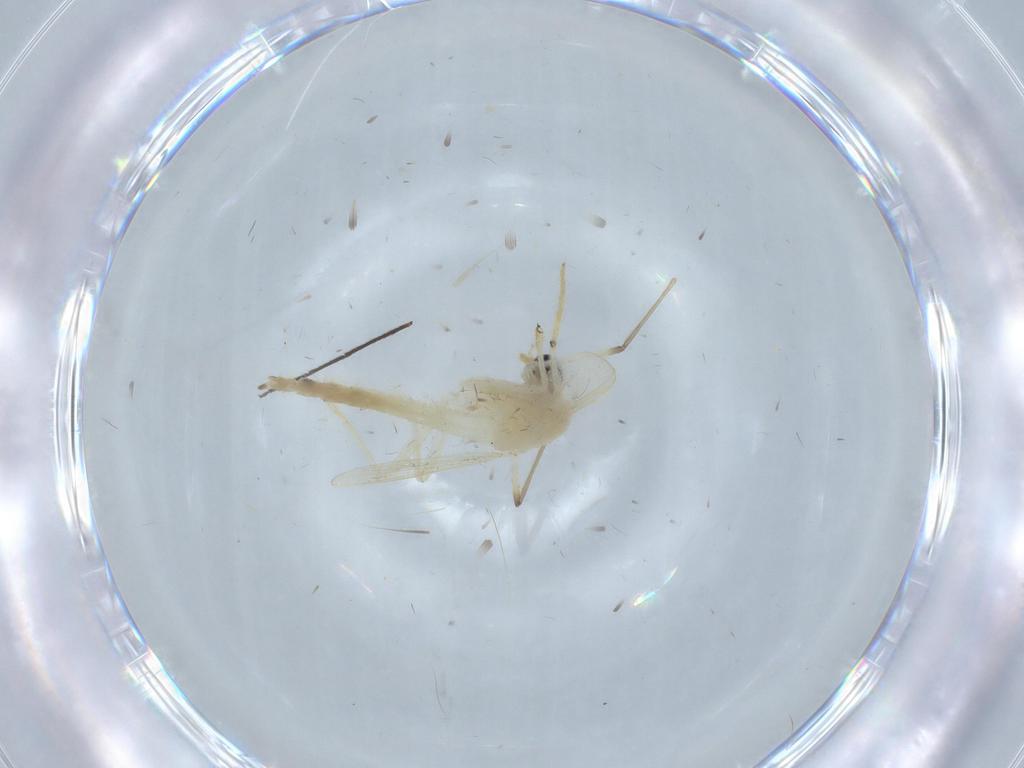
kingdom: Animalia
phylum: Arthropoda
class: Insecta
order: Diptera
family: Chironomidae
